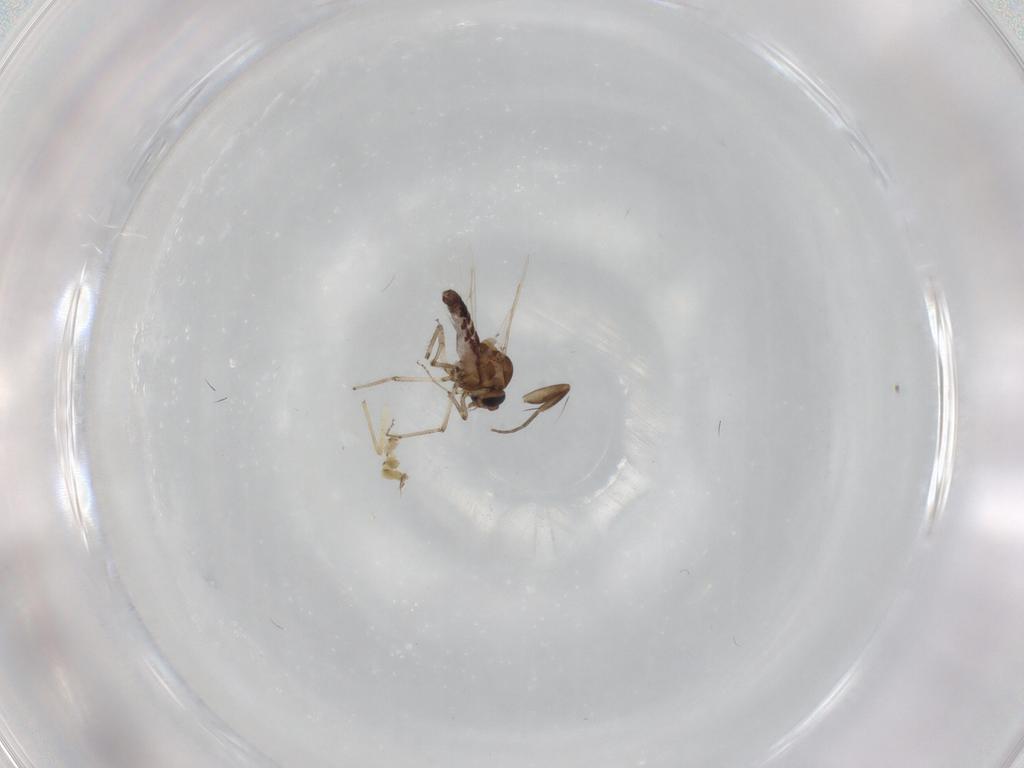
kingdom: Animalia
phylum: Arthropoda
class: Insecta
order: Diptera
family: Ceratopogonidae
